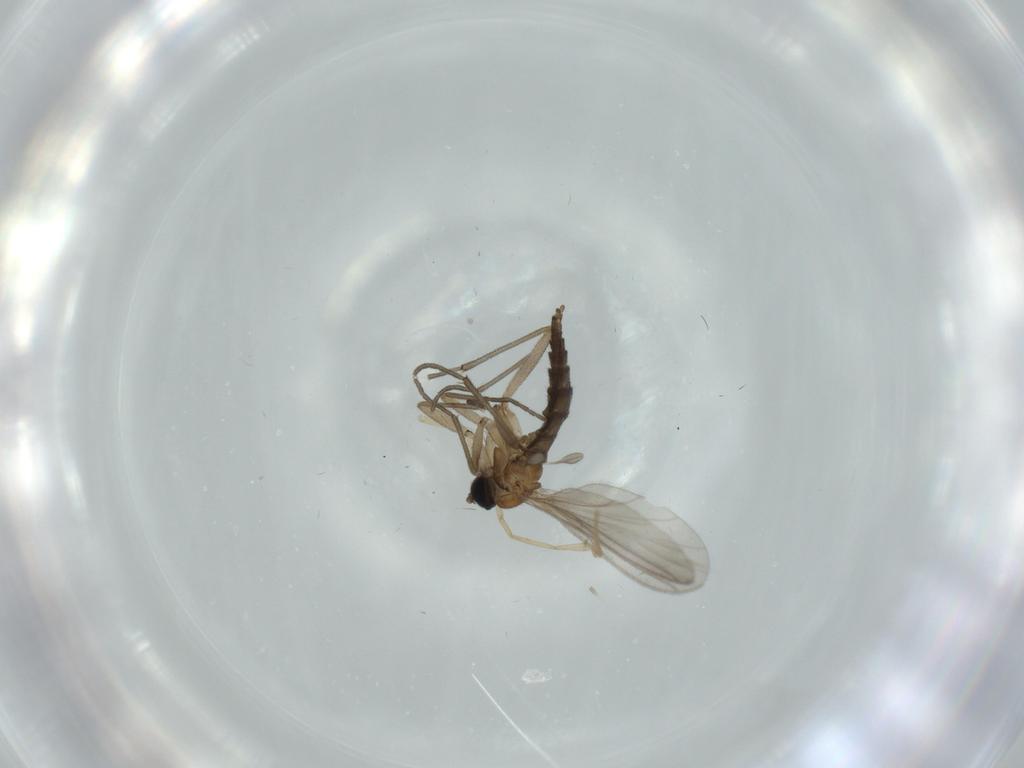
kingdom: Animalia
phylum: Arthropoda
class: Insecta
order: Diptera
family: Sciaridae
